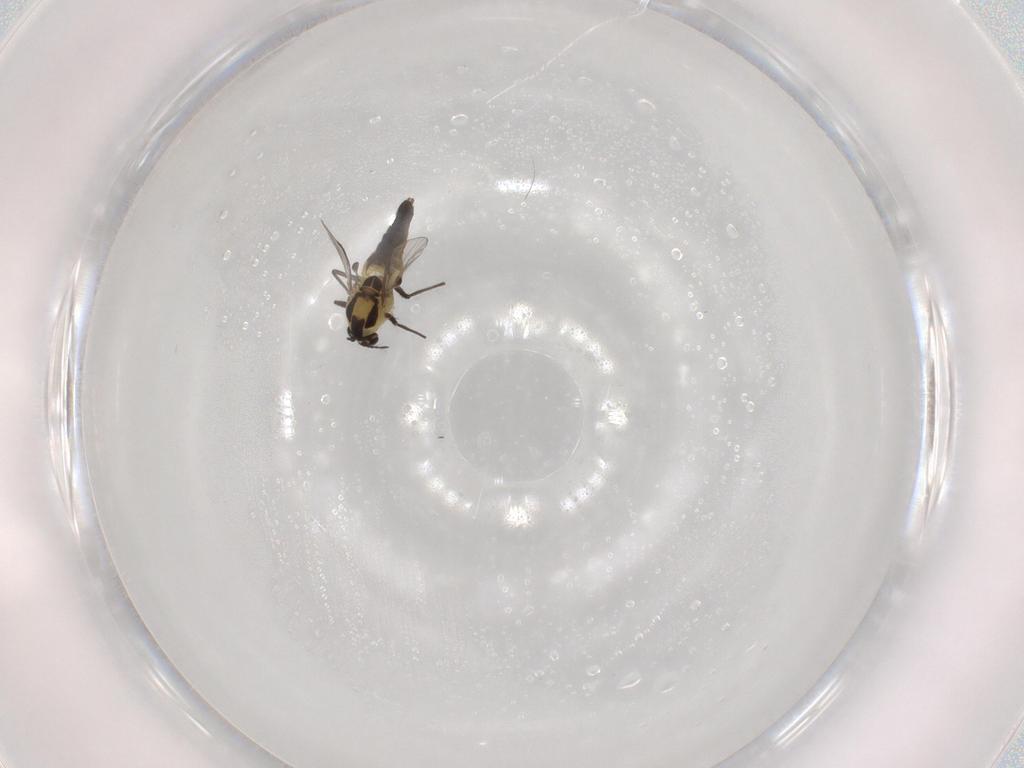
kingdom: Animalia
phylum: Arthropoda
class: Insecta
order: Diptera
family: Chironomidae
